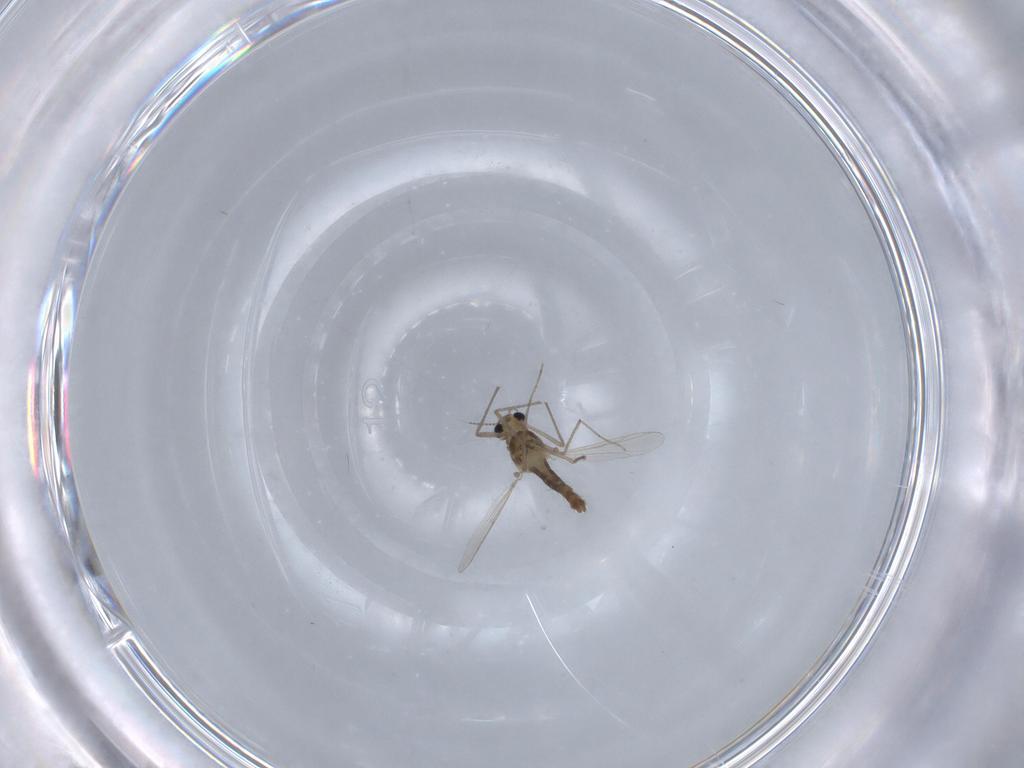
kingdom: Animalia
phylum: Arthropoda
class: Insecta
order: Diptera
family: Chironomidae
